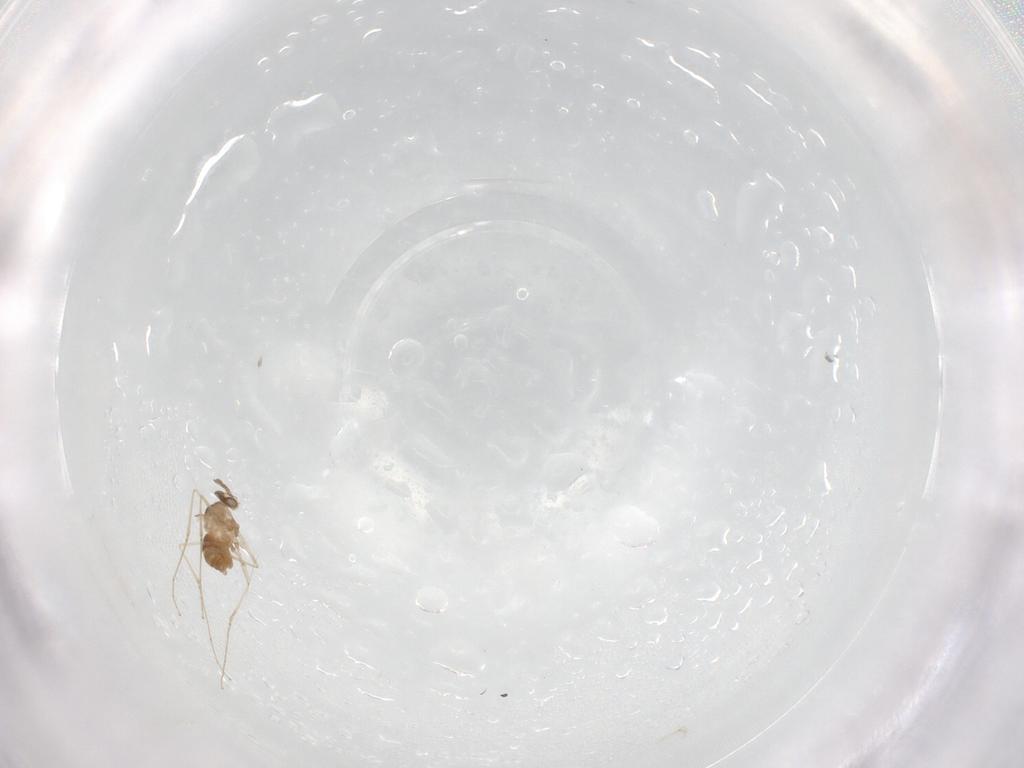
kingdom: Animalia
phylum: Arthropoda
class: Insecta
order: Diptera
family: Cecidomyiidae
